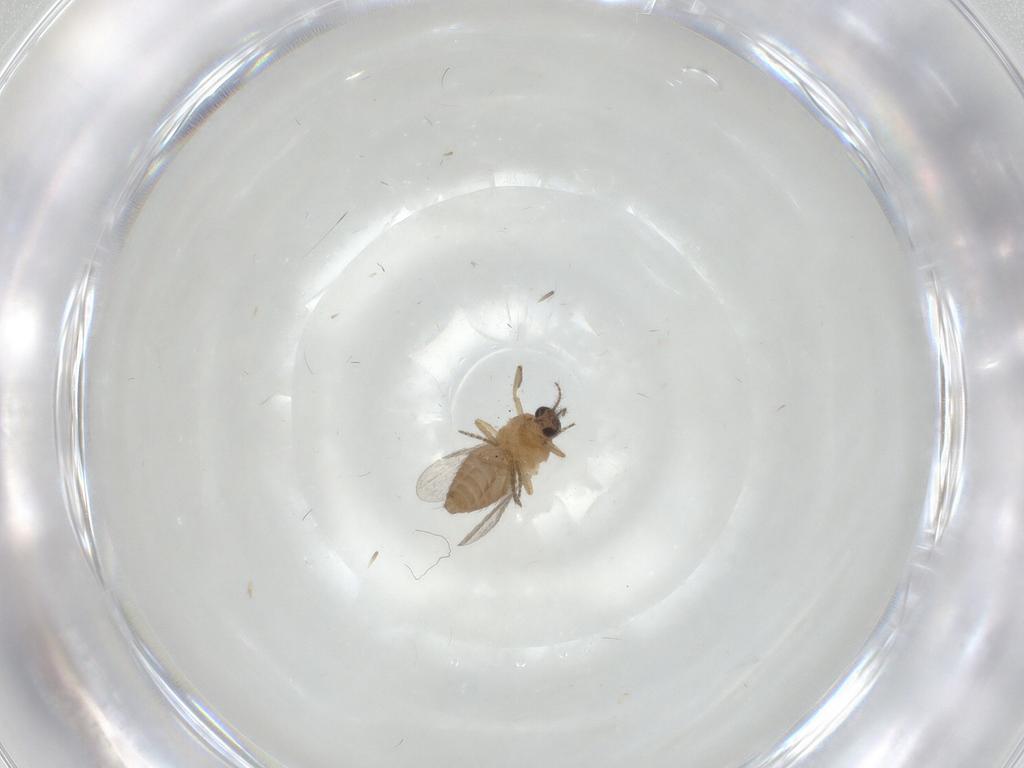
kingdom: Animalia
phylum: Arthropoda
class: Insecta
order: Diptera
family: Ceratopogonidae
